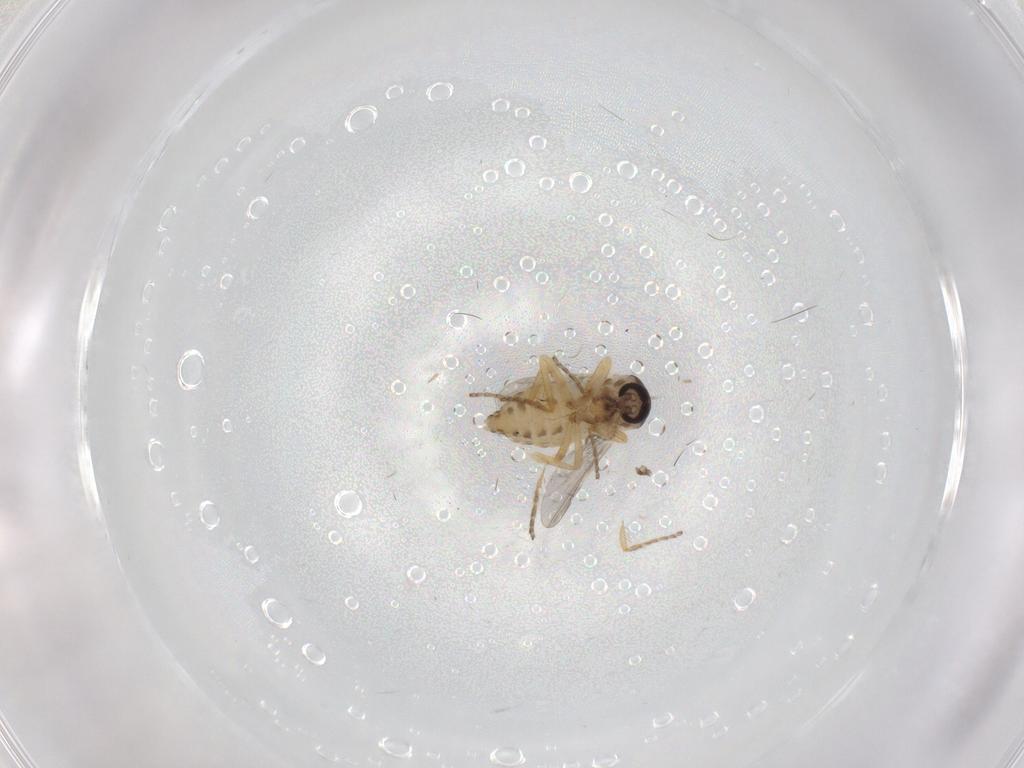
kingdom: Animalia
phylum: Arthropoda
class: Insecta
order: Diptera
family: Ceratopogonidae
